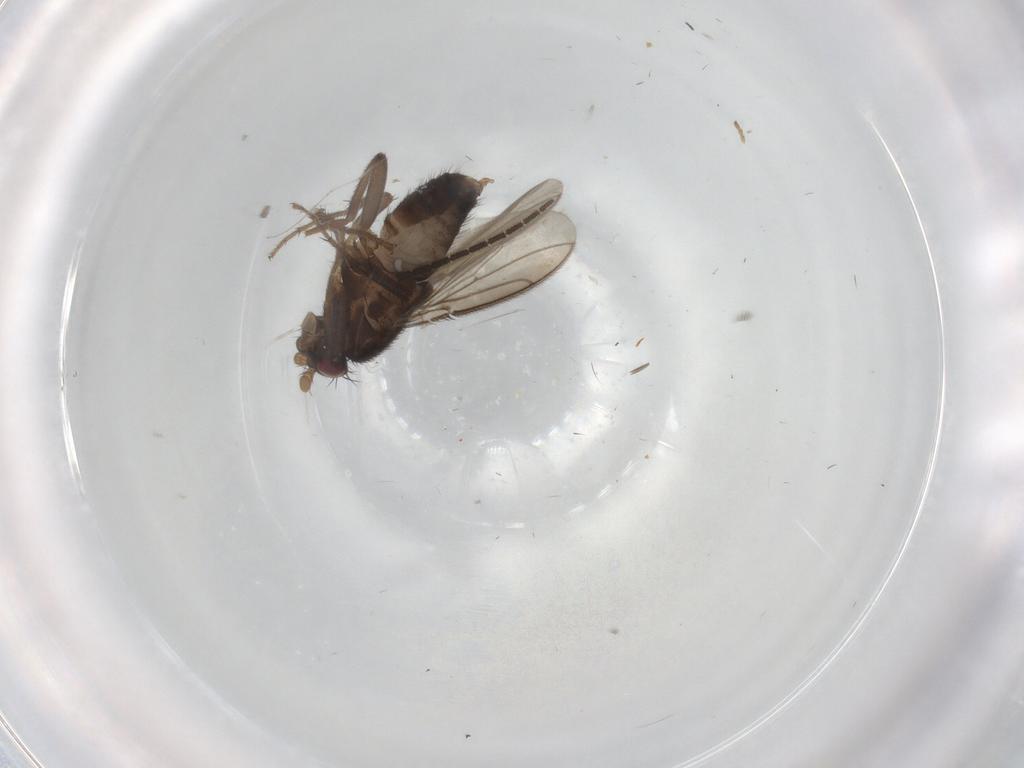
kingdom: Animalia
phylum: Arthropoda
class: Insecta
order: Diptera
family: Sphaeroceridae
